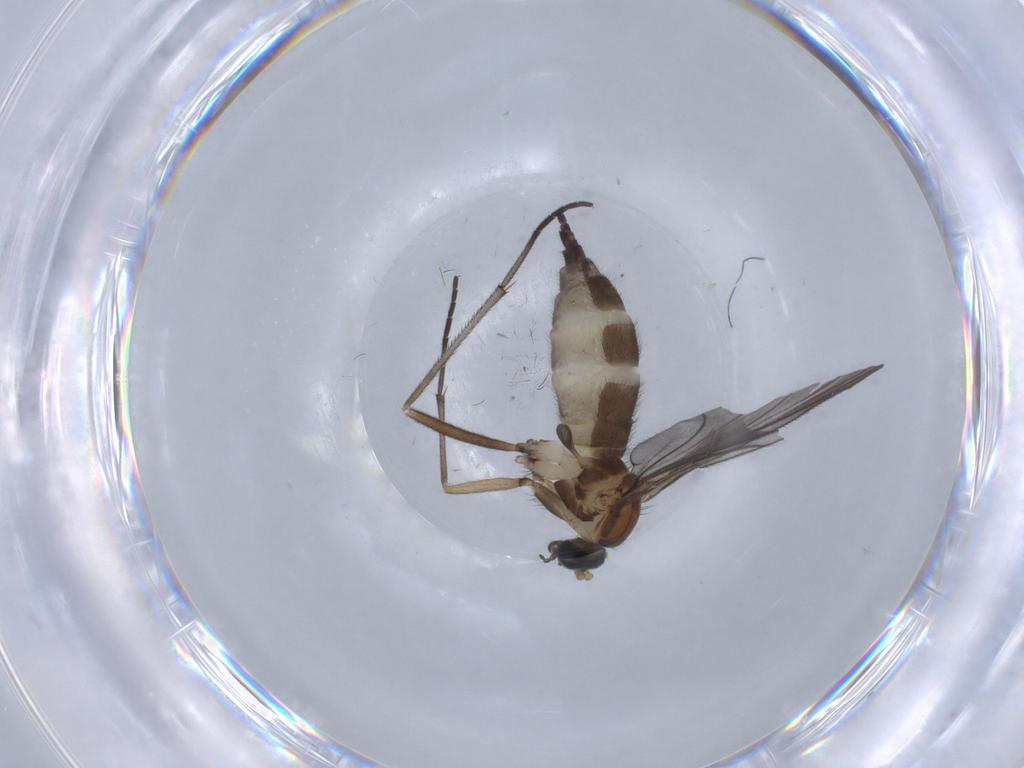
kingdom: Animalia
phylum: Arthropoda
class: Insecta
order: Diptera
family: Sciaridae
